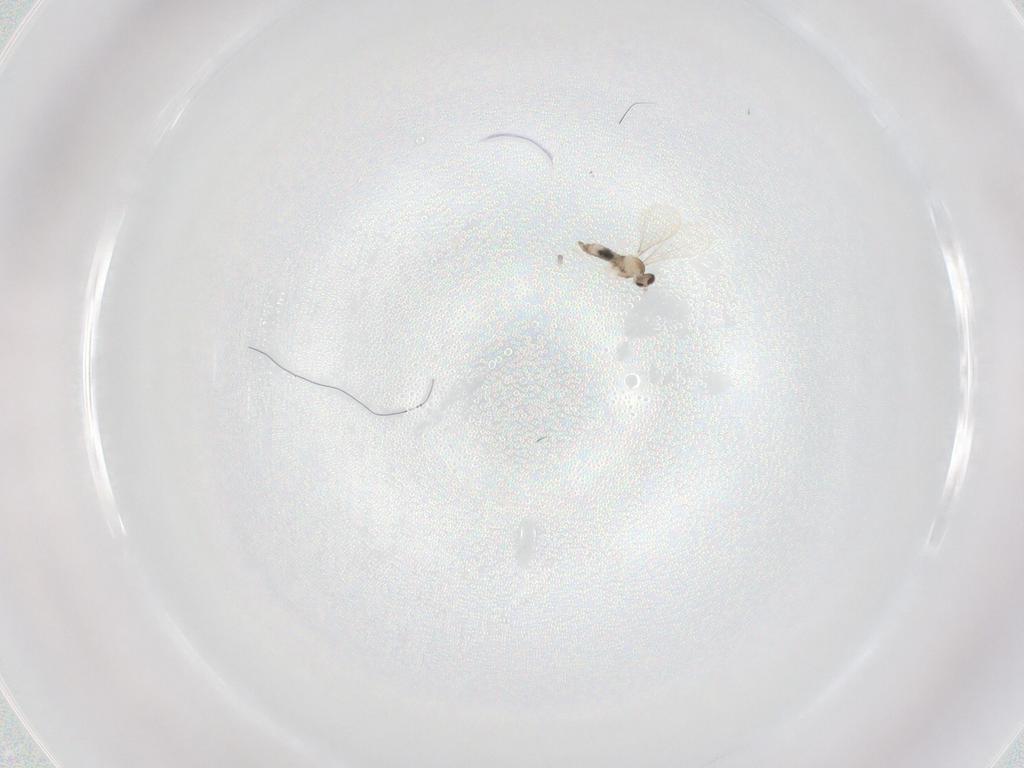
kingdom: Animalia
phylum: Arthropoda
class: Insecta
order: Diptera
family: Cecidomyiidae
